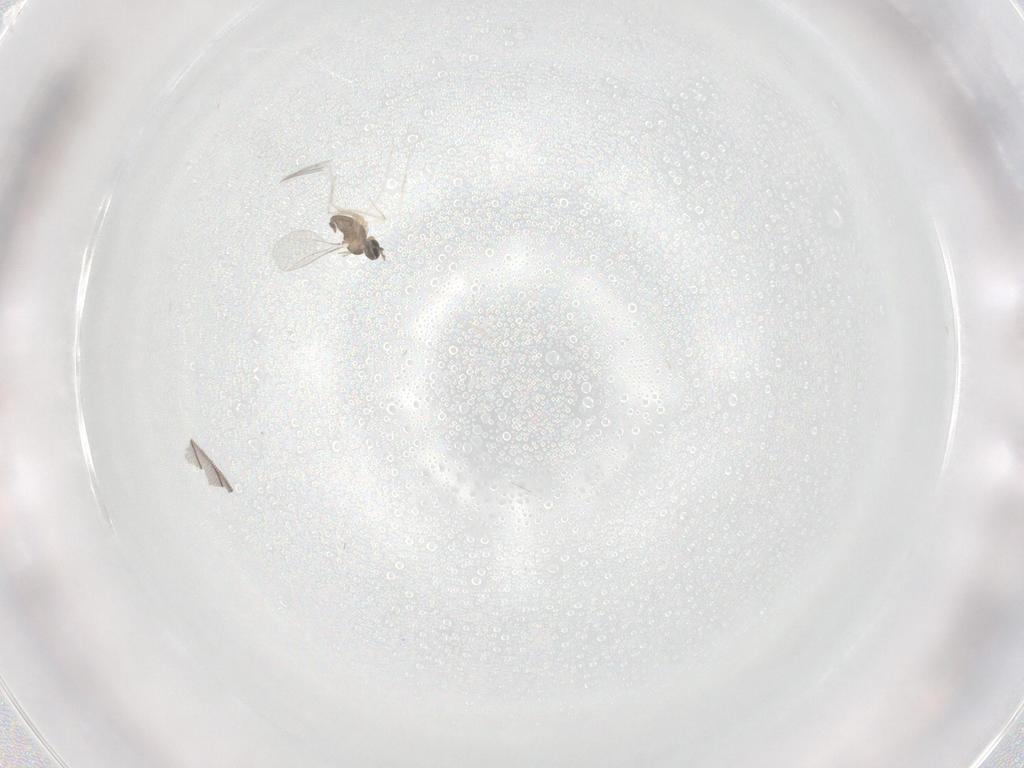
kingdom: Animalia
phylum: Arthropoda
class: Insecta
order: Diptera
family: Cecidomyiidae
